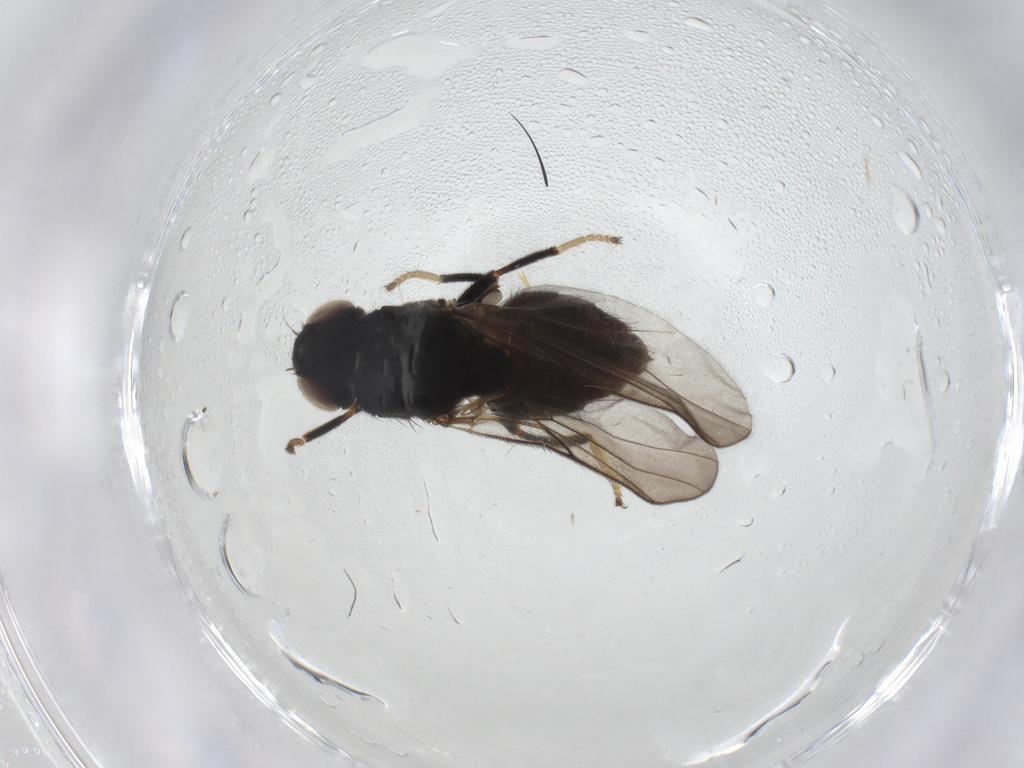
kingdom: Animalia
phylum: Arthropoda
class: Insecta
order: Diptera
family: Chloropidae
